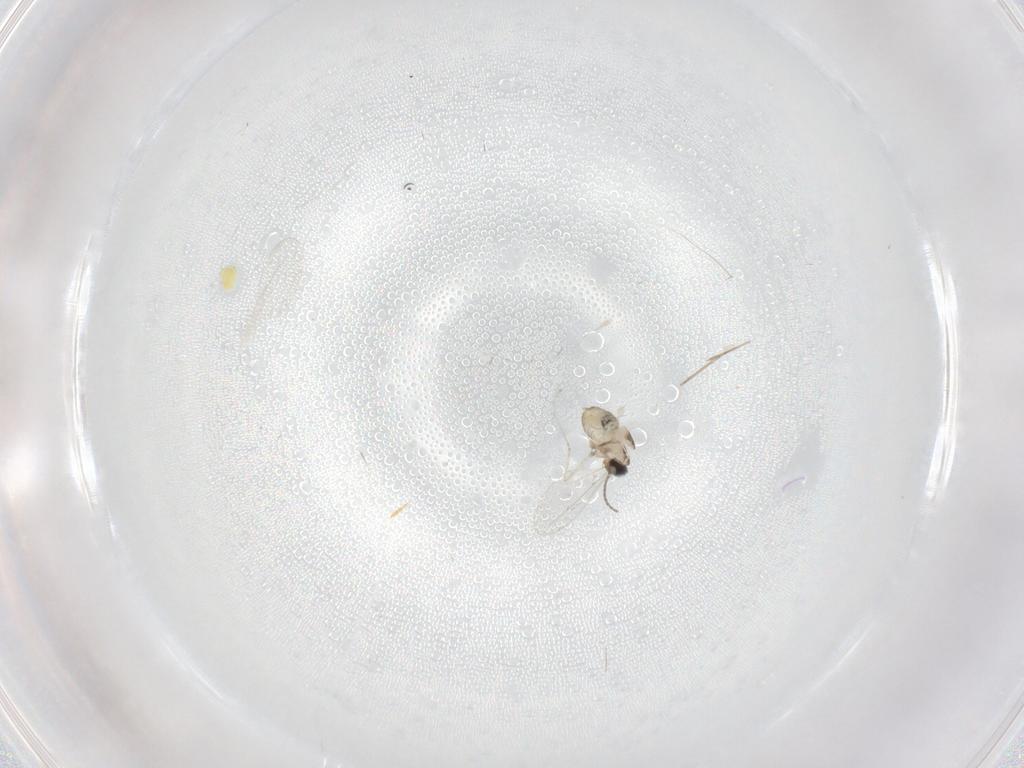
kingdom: Animalia
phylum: Arthropoda
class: Insecta
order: Diptera
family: Cecidomyiidae
